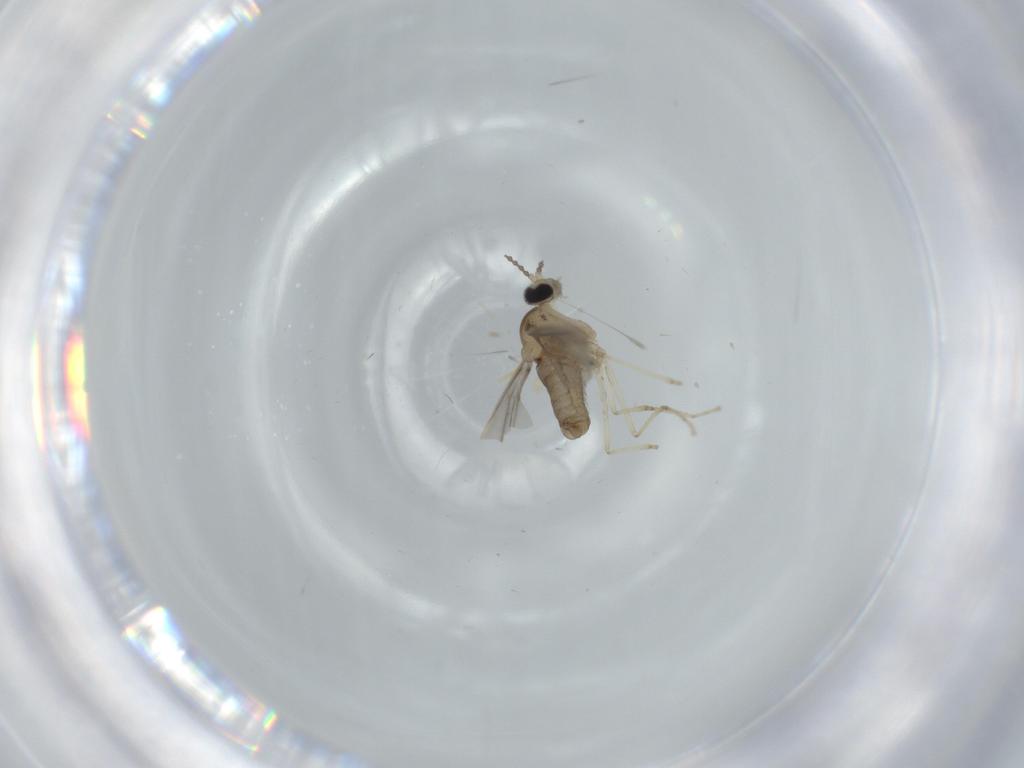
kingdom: Animalia
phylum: Arthropoda
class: Insecta
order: Diptera
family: Cecidomyiidae
